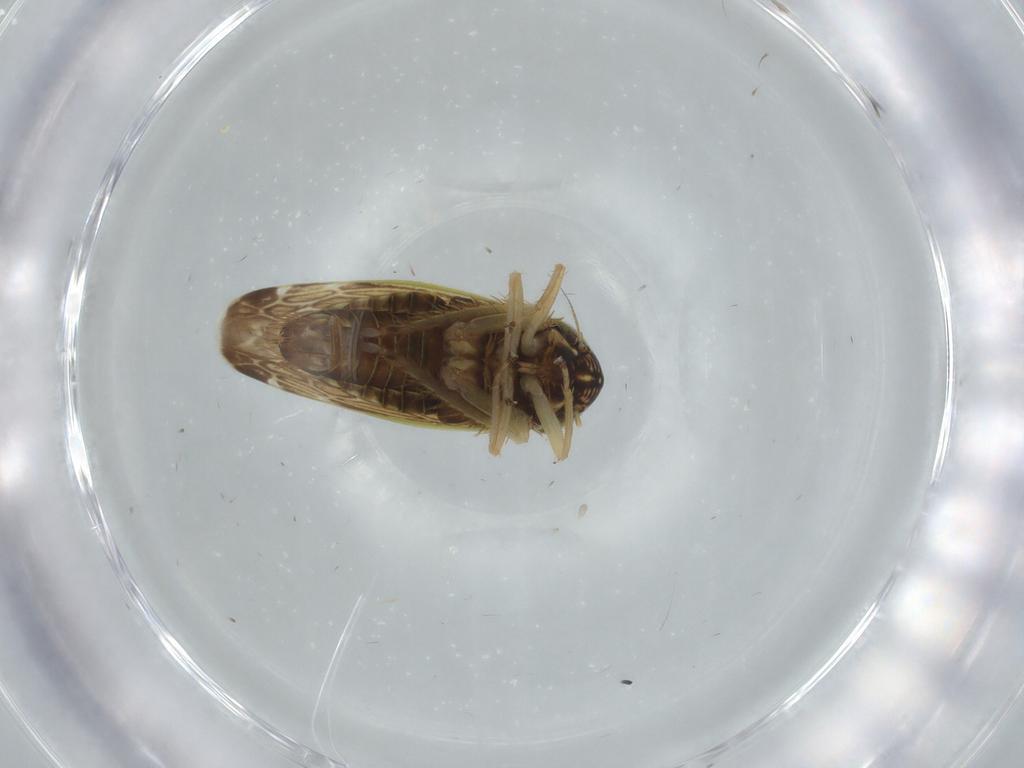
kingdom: Animalia
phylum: Arthropoda
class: Insecta
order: Hemiptera
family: Cicadellidae
